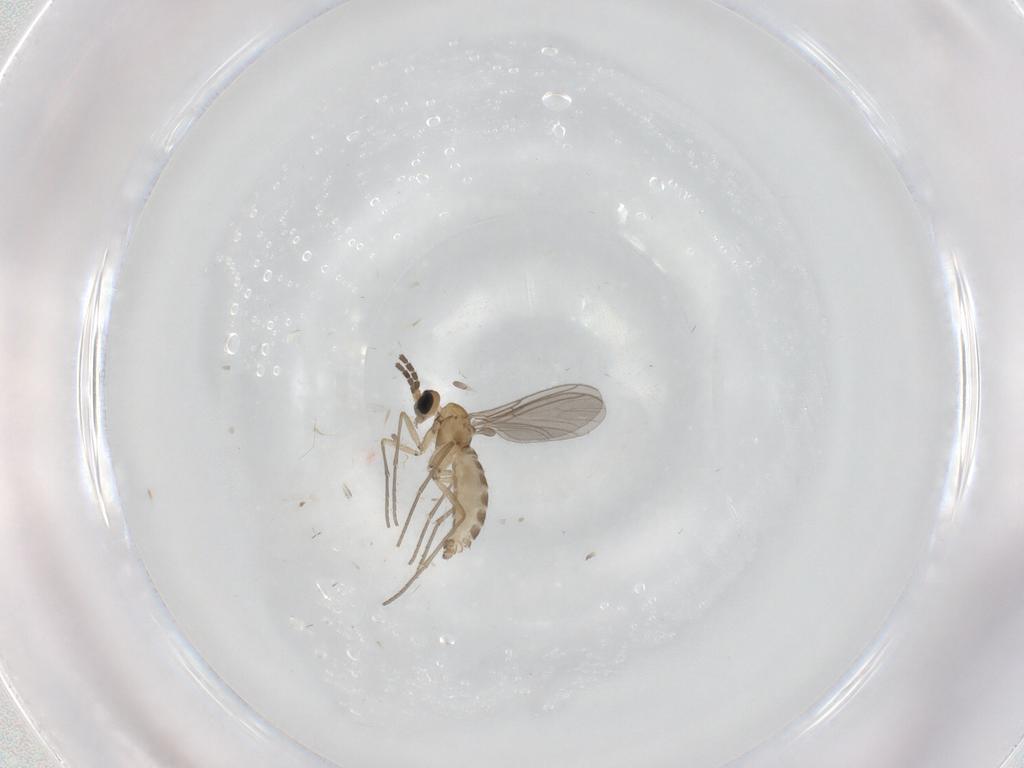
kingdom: Animalia
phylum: Arthropoda
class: Insecta
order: Diptera
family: Sciaridae
